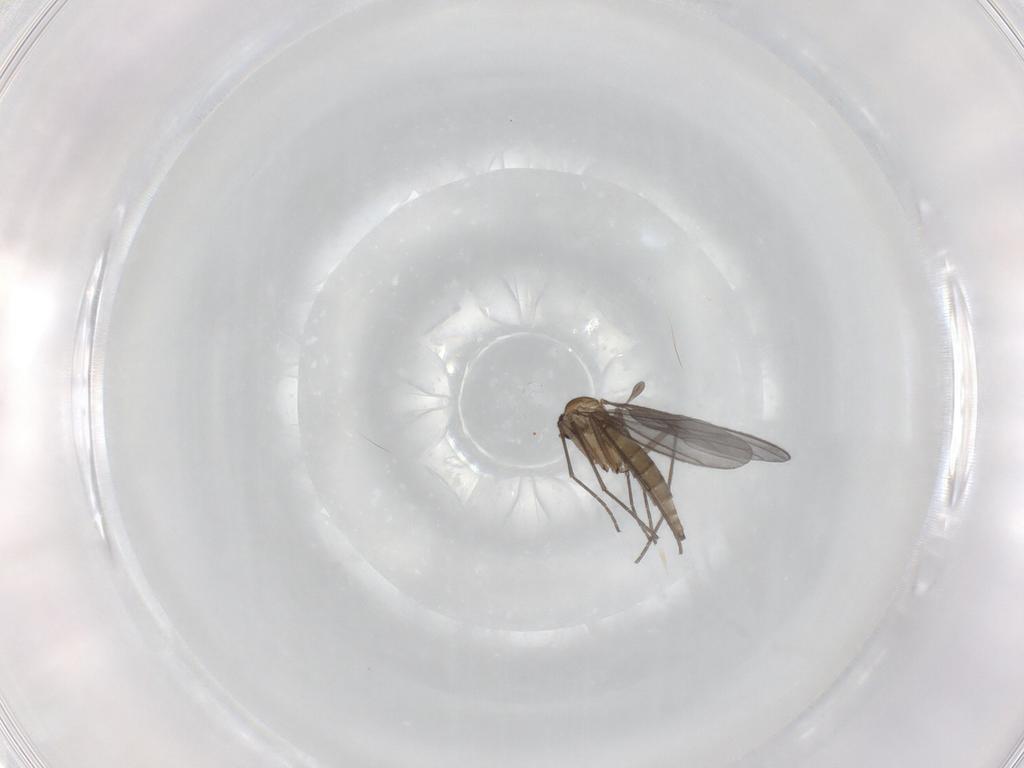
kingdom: Animalia
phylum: Arthropoda
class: Insecta
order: Diptera
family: Sciaridae
